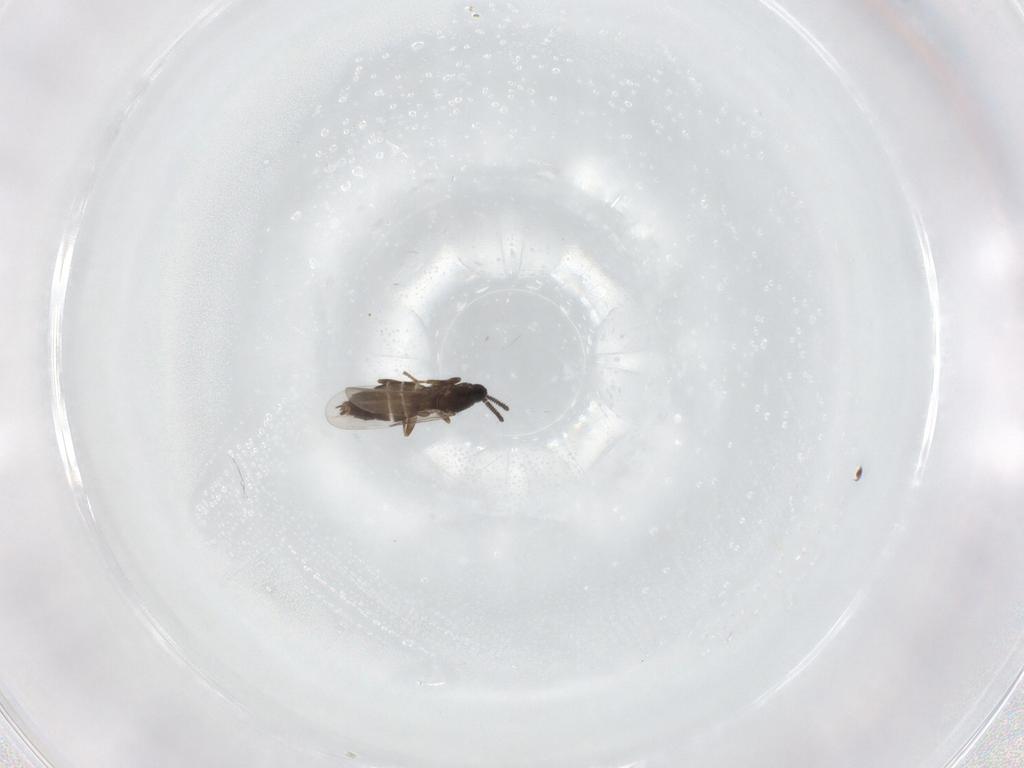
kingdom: Animalia
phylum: Arthropoda
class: Insecta
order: Diptera
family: Scatopsidae
